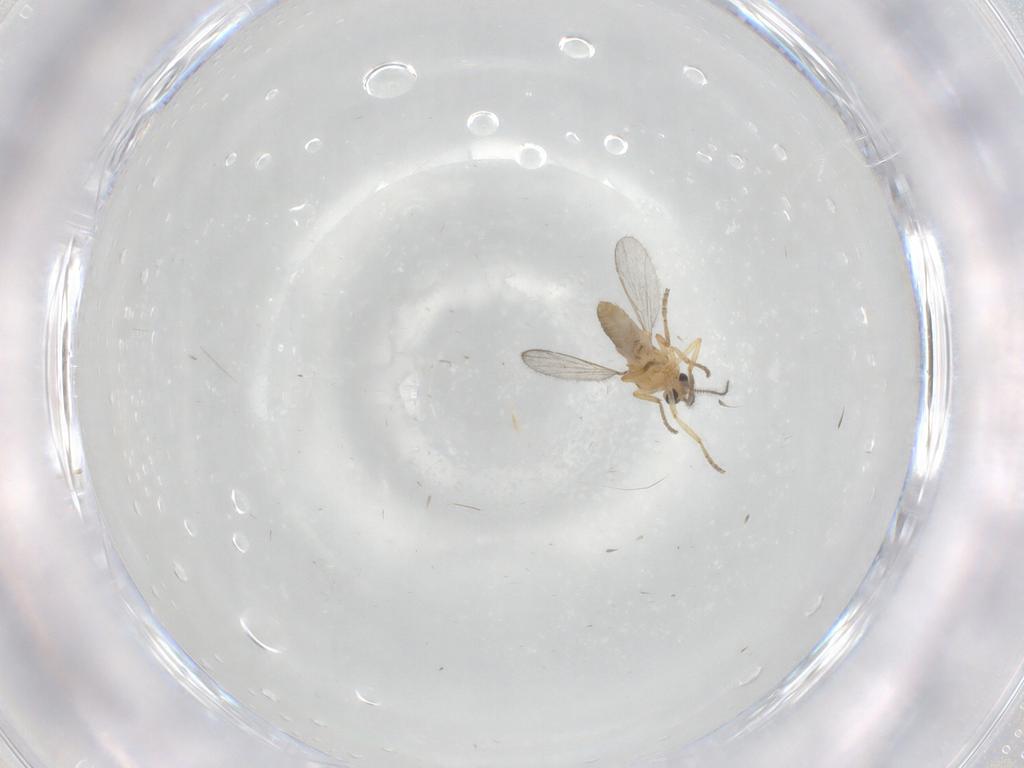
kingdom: Animalia
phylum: Arthropoda
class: Insecta
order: Diptera
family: Ceratopogonidae
